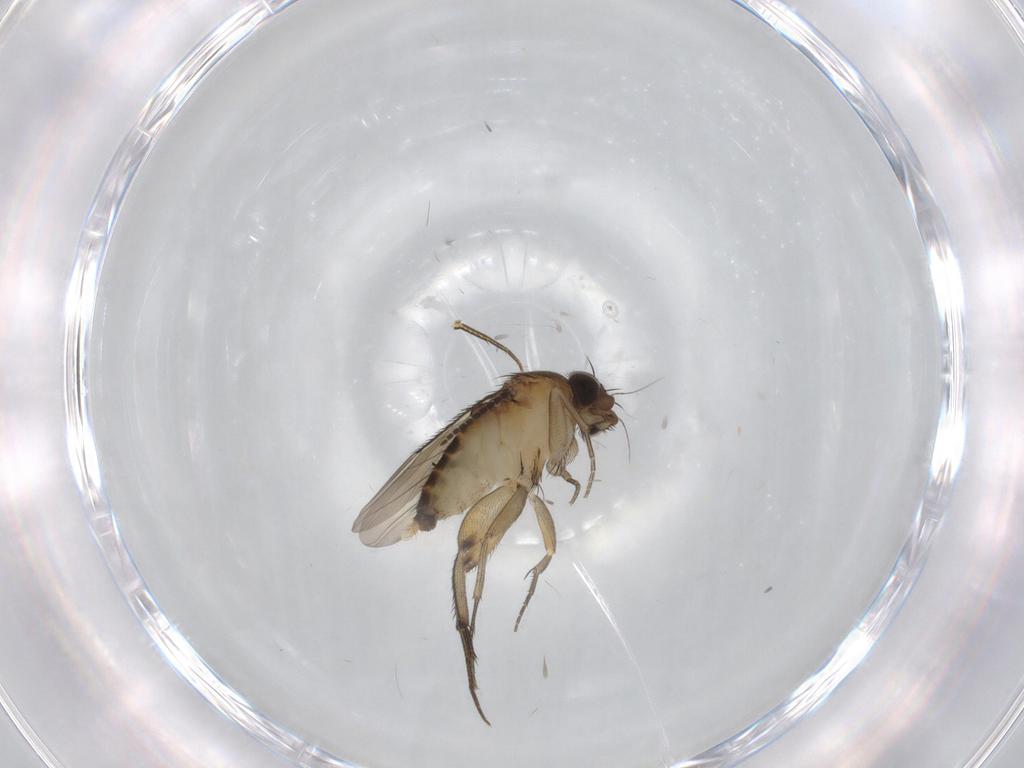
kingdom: Animalia
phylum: Arthropoda
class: Insecta
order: Diptera
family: Phoridae
